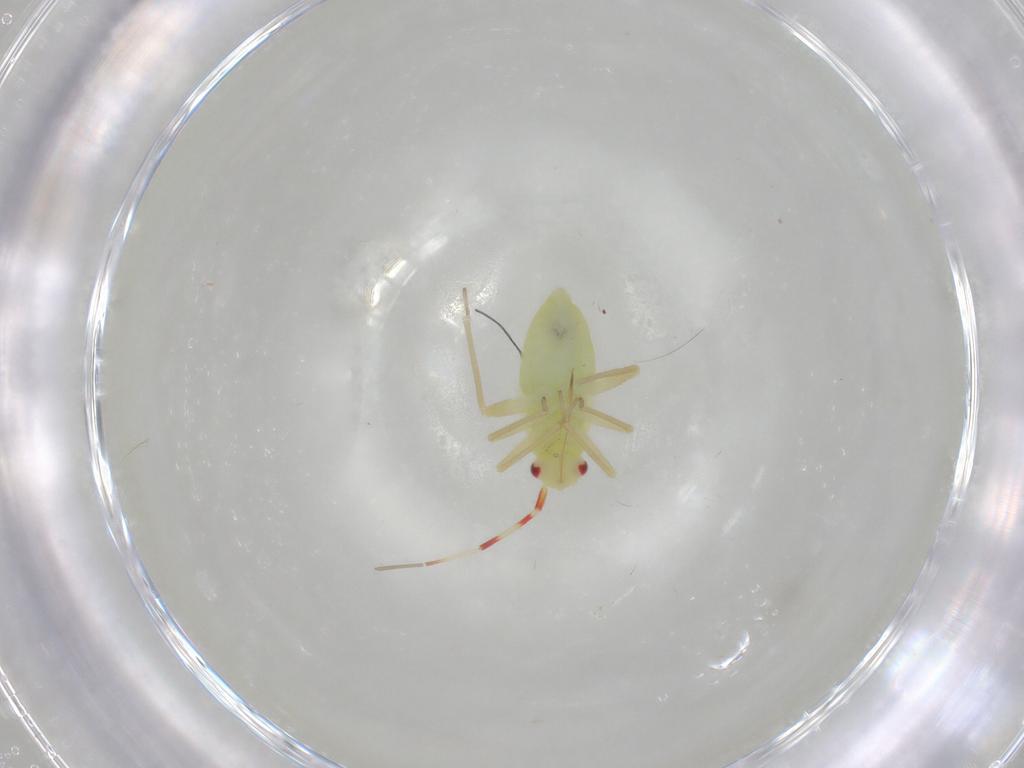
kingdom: Animalia
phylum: Arthropoda
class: Insecta
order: Hemiptera
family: Miridae
